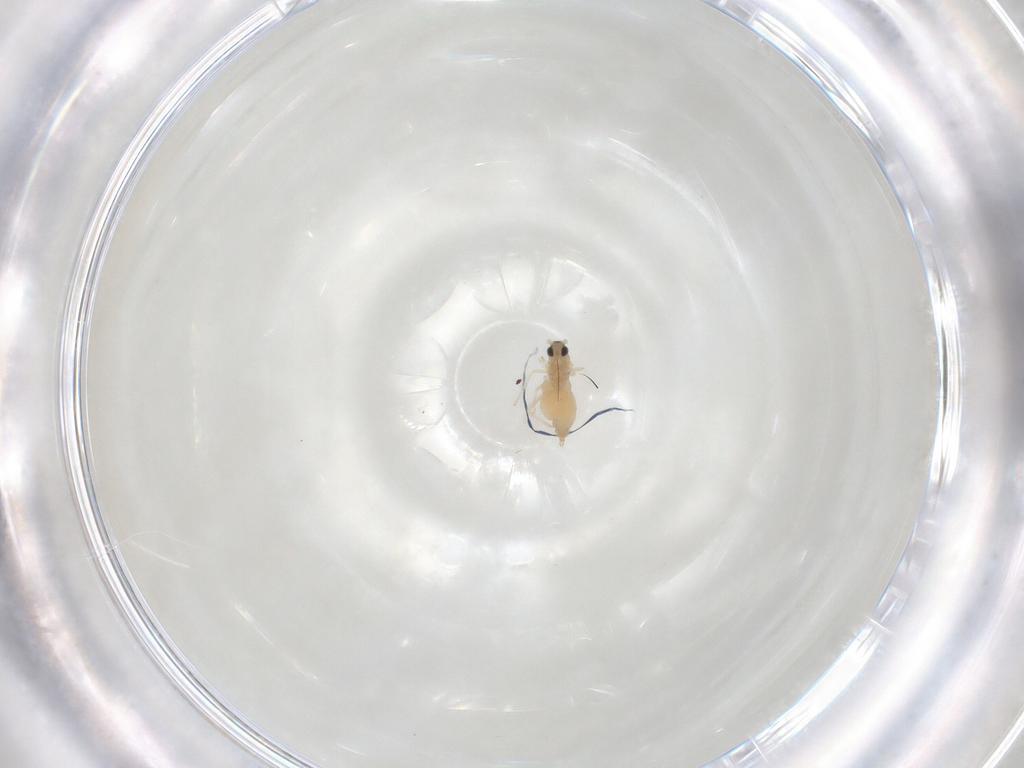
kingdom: Animalia
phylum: Arthropoda
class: Insecta
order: Diptera
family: Cecidomyiidae
